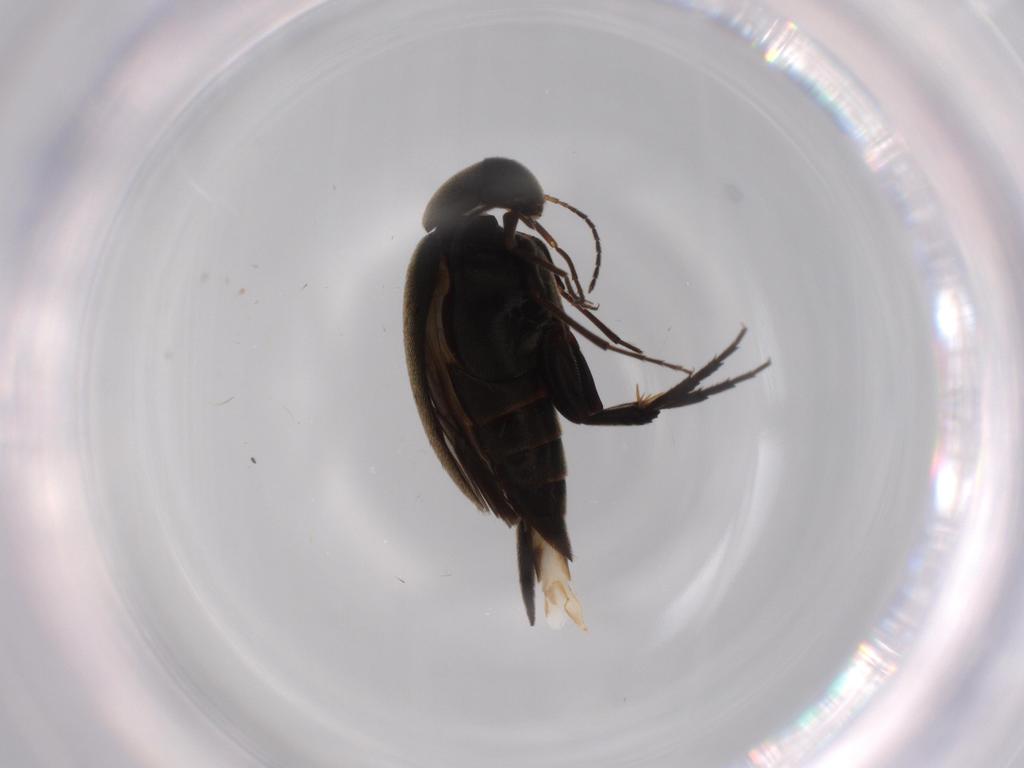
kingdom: Animalia
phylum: Arthropoda
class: Insecta
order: Coleoptera
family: Mordellidae
